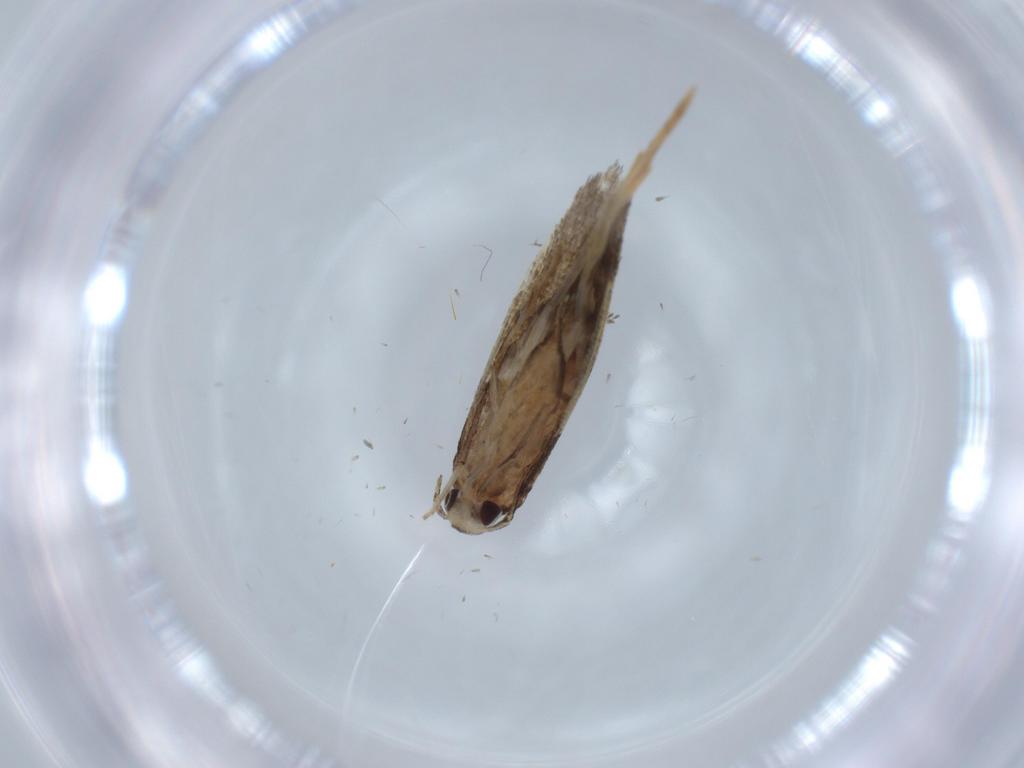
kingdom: Animalia
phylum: Arthropoda
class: Insecta
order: Lepidoptera
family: Cosmopterigidae
